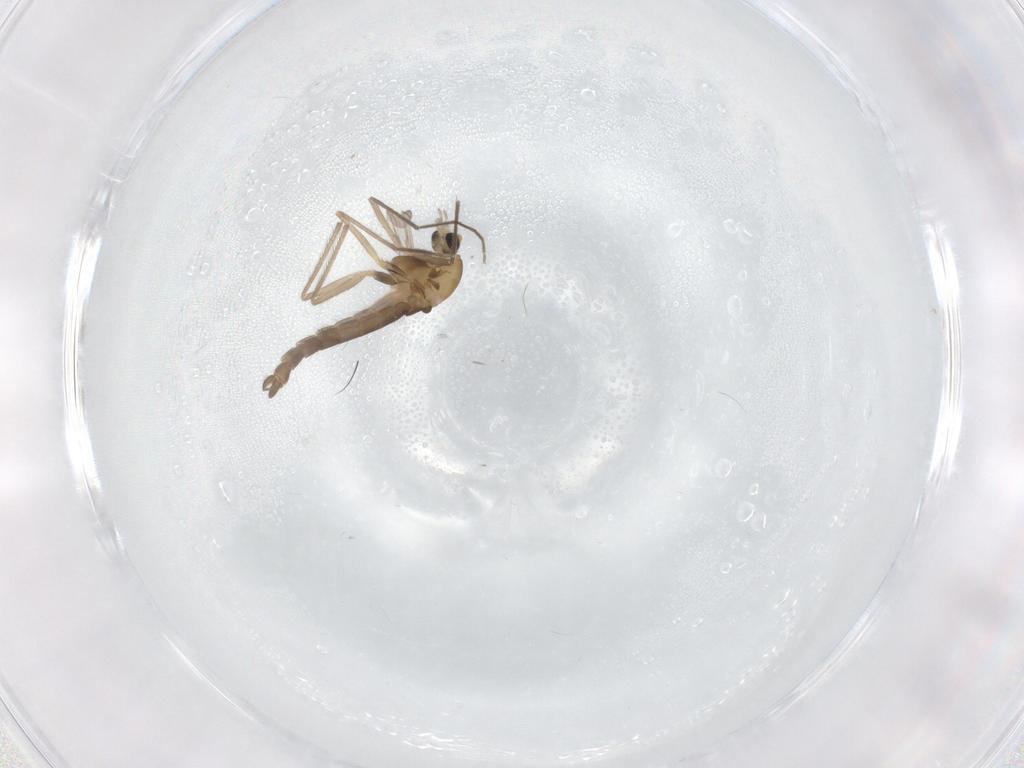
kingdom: Animalia
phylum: Arthropoda
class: Insecta
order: Diptera
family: Chironomidae
